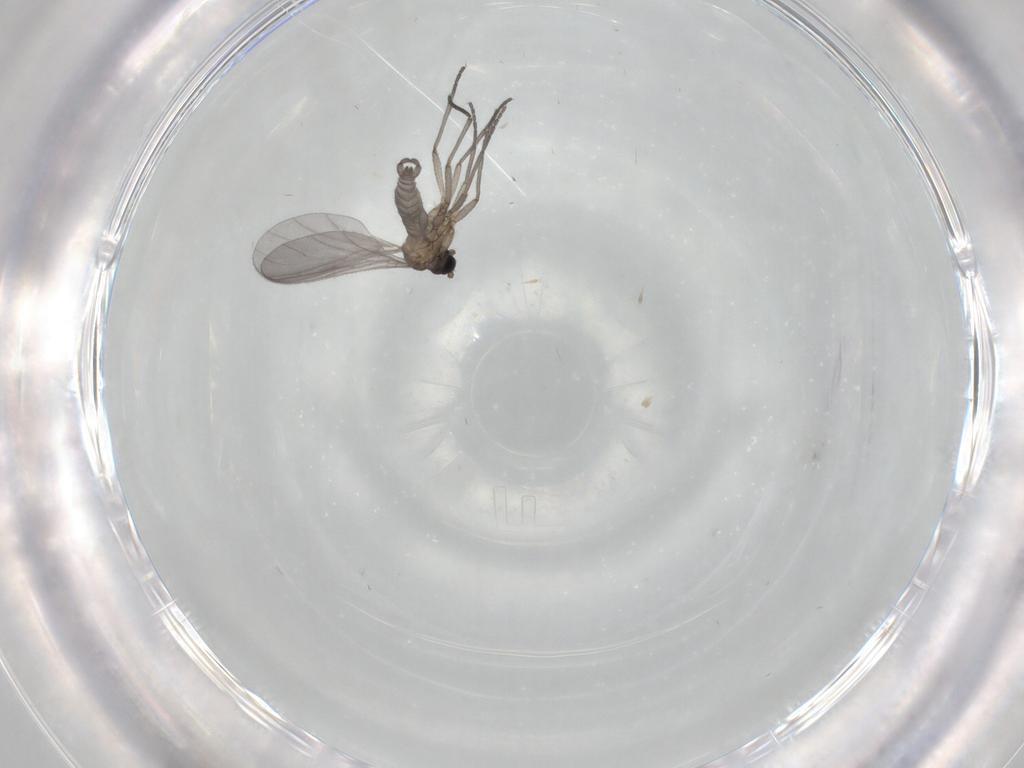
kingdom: Animalia
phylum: Arthropoda
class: Insecta
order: Diptera
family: Sciaridae
